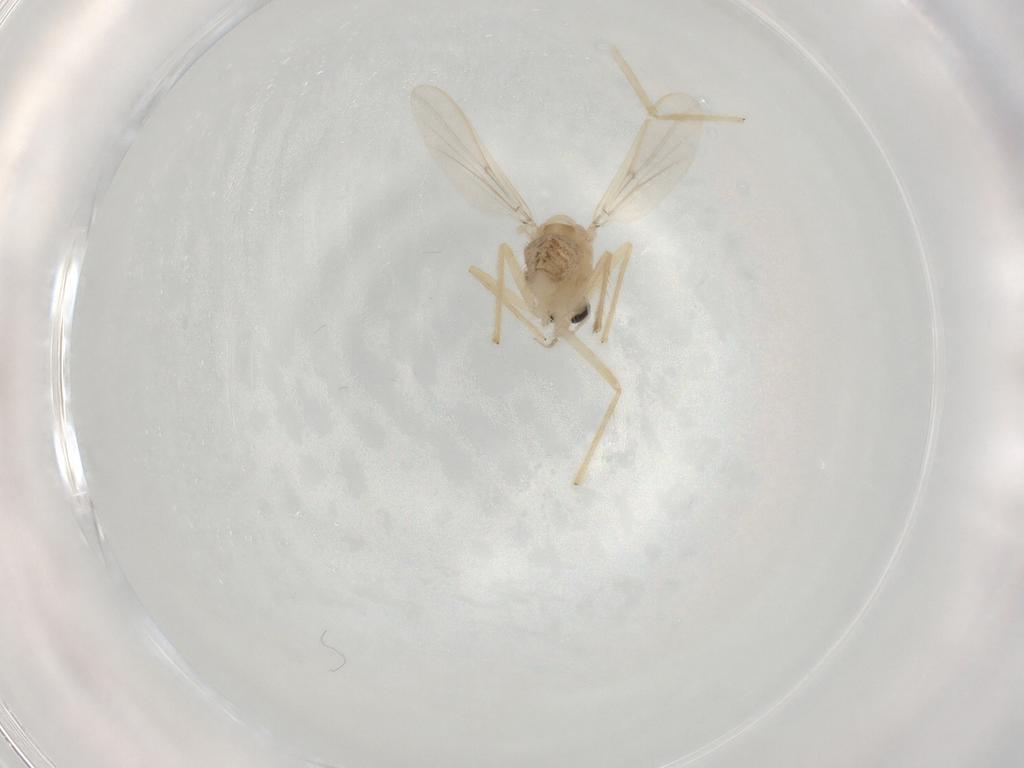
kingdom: Animalia
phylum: Arthropoda
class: Insecta
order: Diptera
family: Chironomidae
